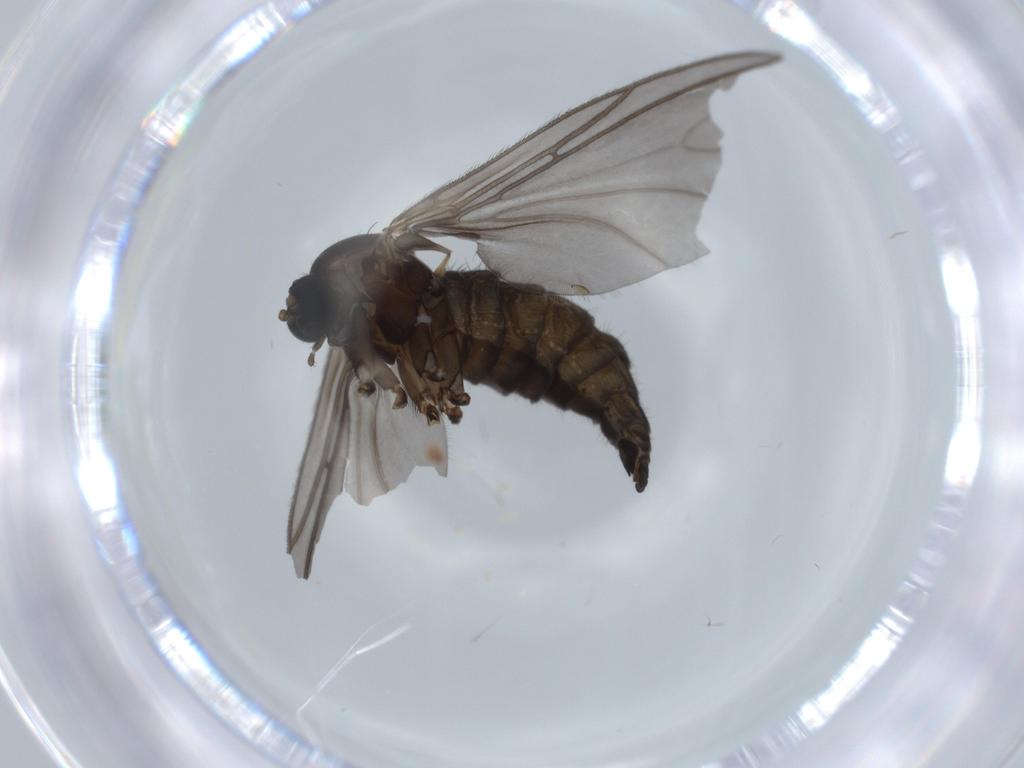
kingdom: Animalia
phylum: Arthropoda
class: Insecta
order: Diptera
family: Sciaridae
